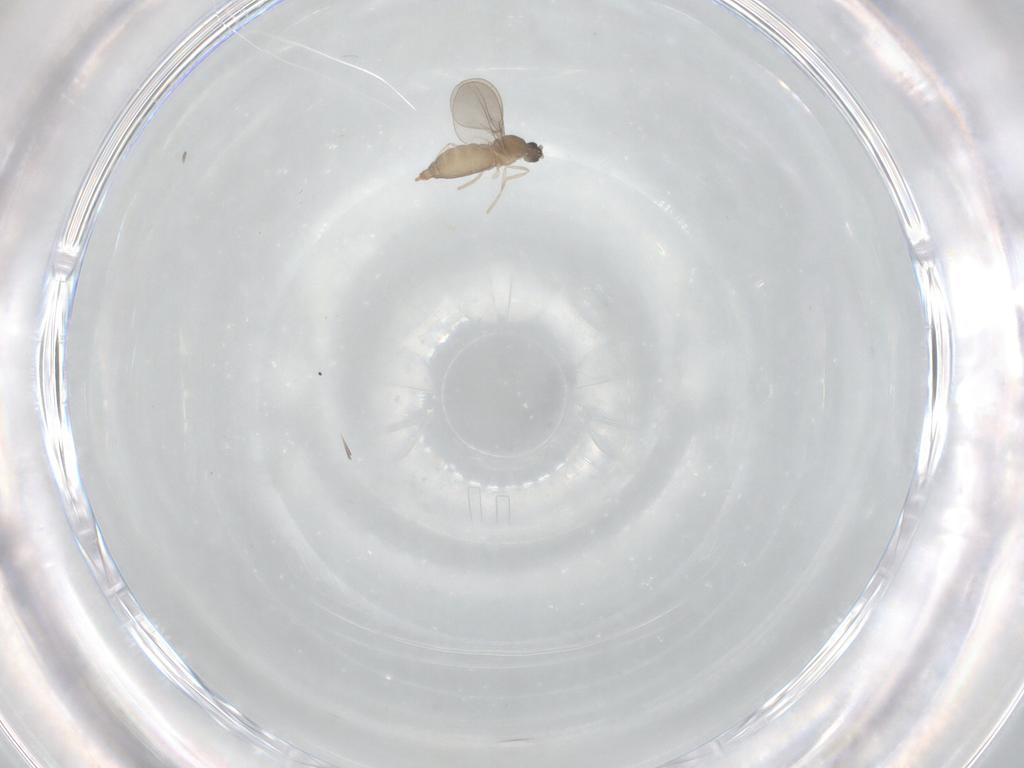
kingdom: Animalia
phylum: Arthropoda
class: Insecta
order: Diptera
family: Cecidomyiidae
